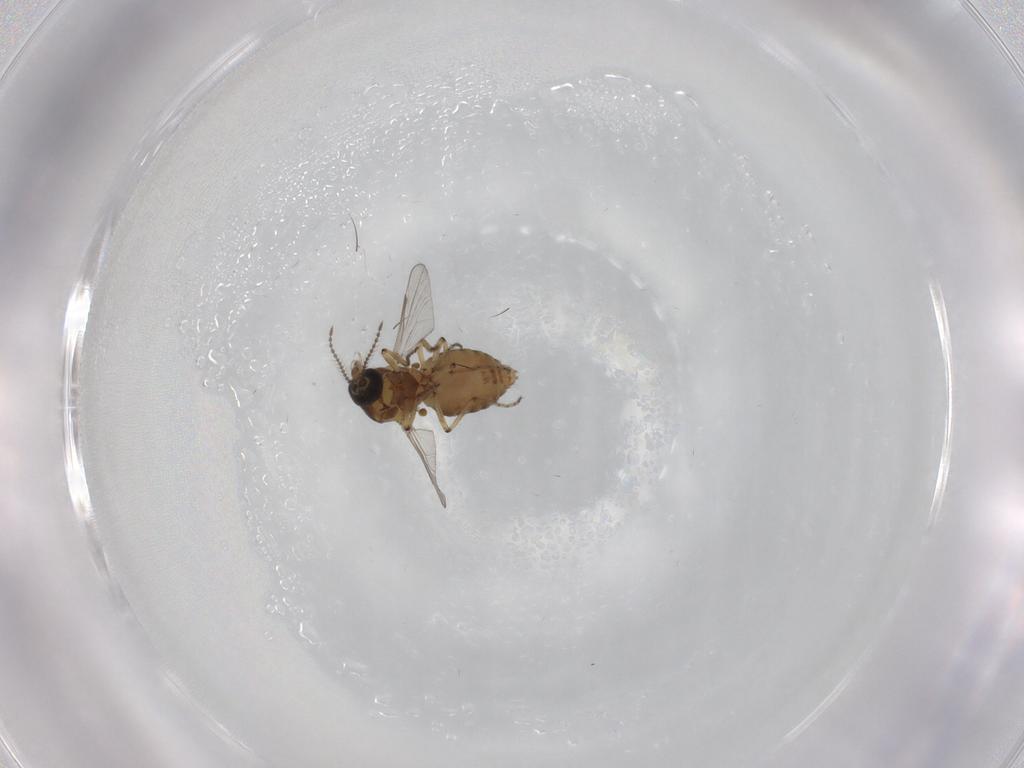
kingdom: Animalia
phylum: Arthropoda
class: Insecta
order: Diptera
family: Ceratopogonidae
